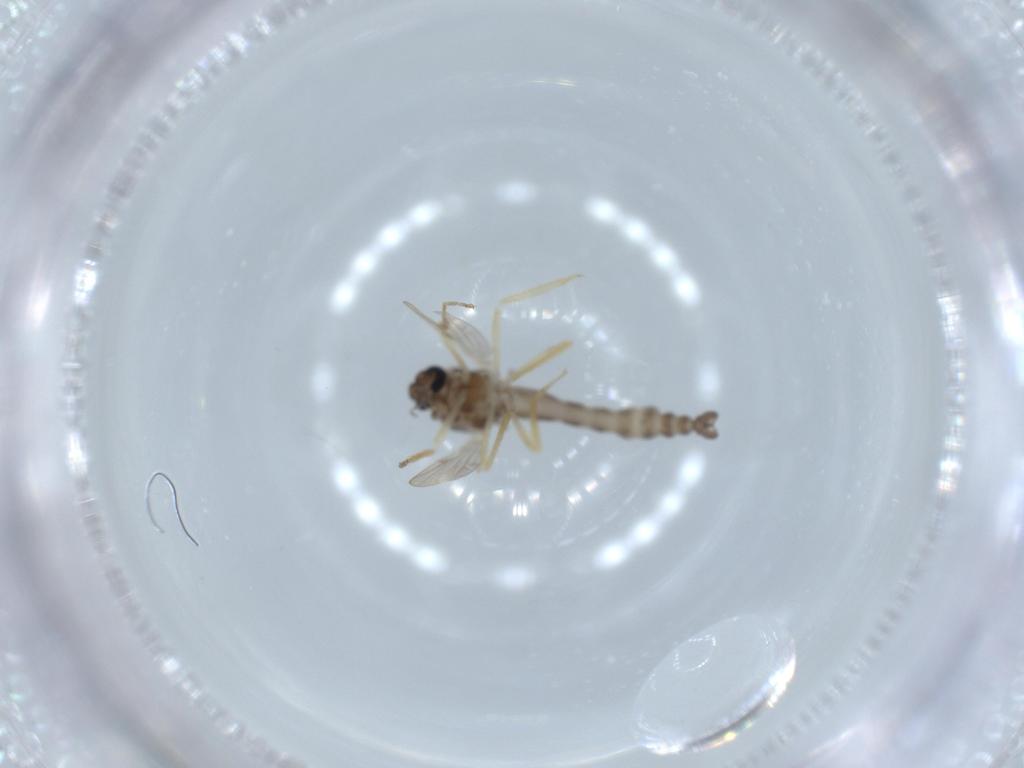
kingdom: Animalia
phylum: Arthropoda
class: Insecta
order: Diptera
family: Ceratopogonidae
